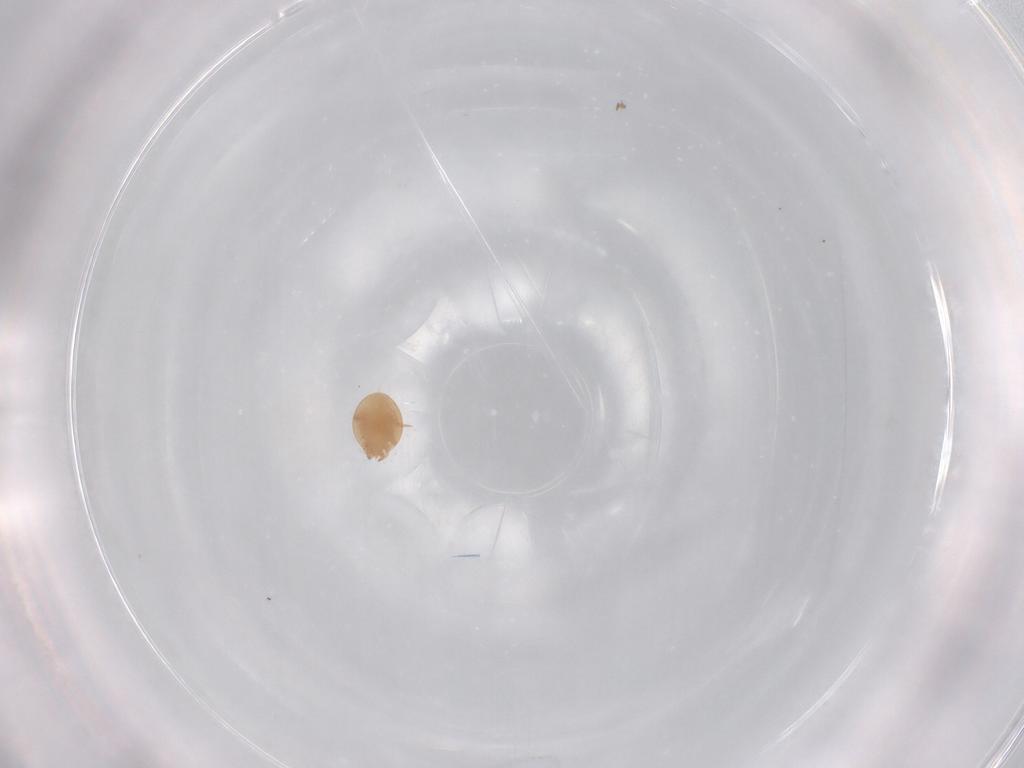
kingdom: Animalia
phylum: Arthropoda
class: Arachnida
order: Mesostigmata
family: Trematuridae
